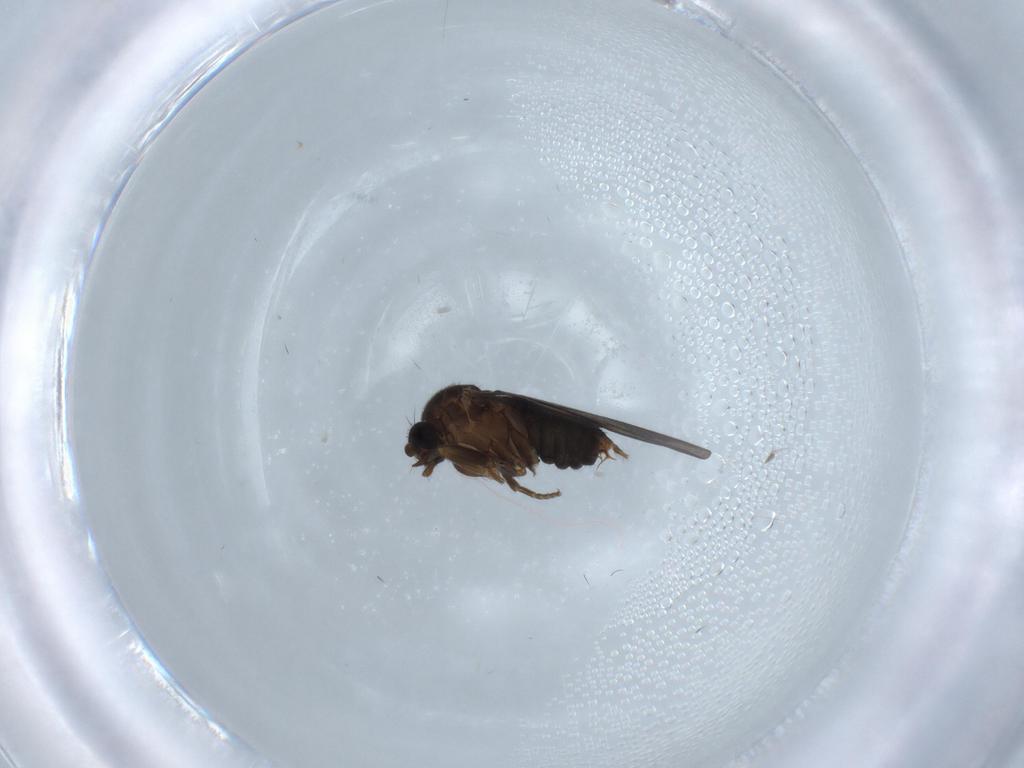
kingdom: Animalia
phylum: Arthropoda
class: Insecta
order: Diptera
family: Phoridae
